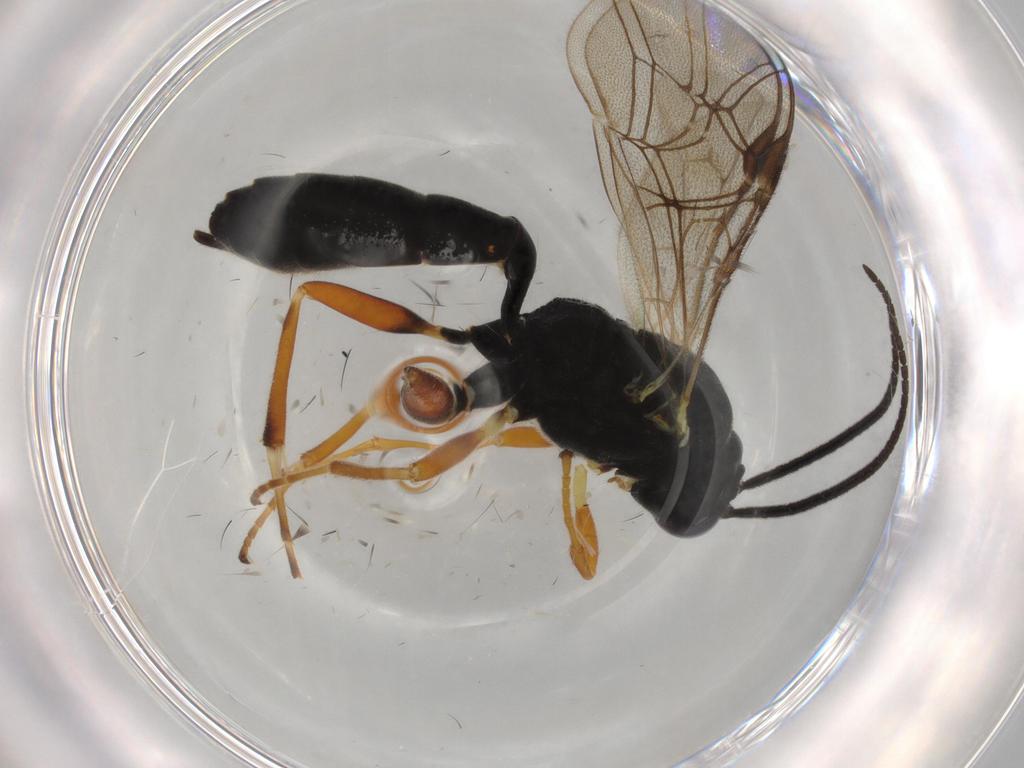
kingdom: Animalia
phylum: Arthropoda
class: Insecta
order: Hymenoptera
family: Ichneumonidae
